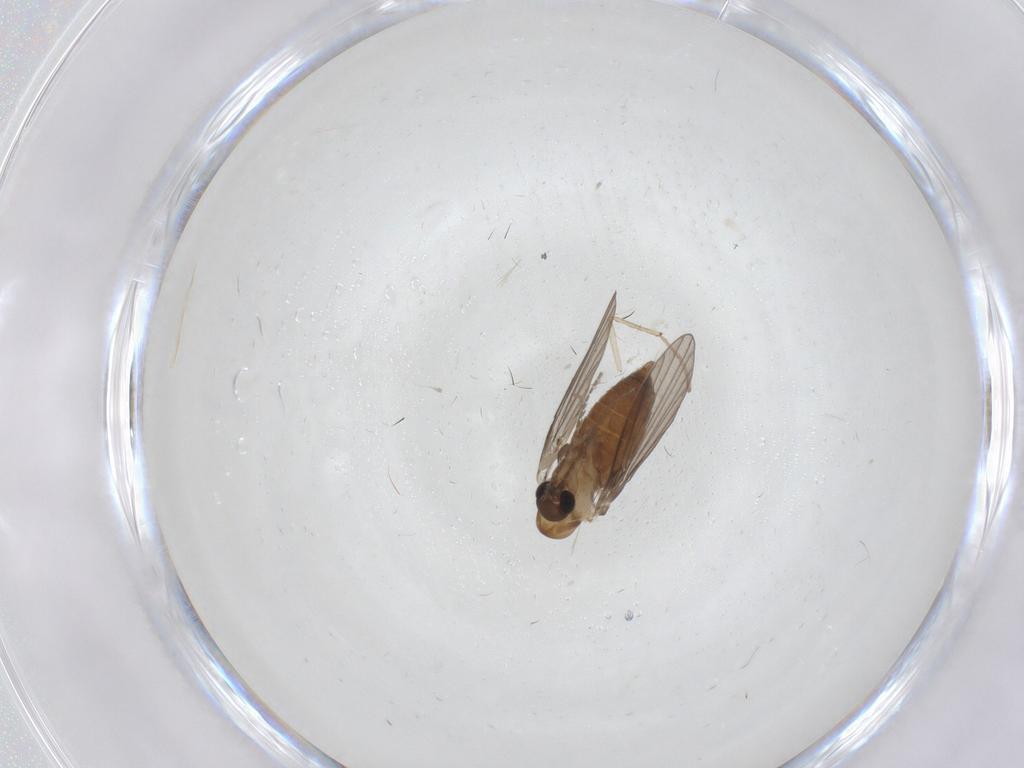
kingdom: Animalia
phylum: Arthropoda
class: Insecta
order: Diptera
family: Phoridae
